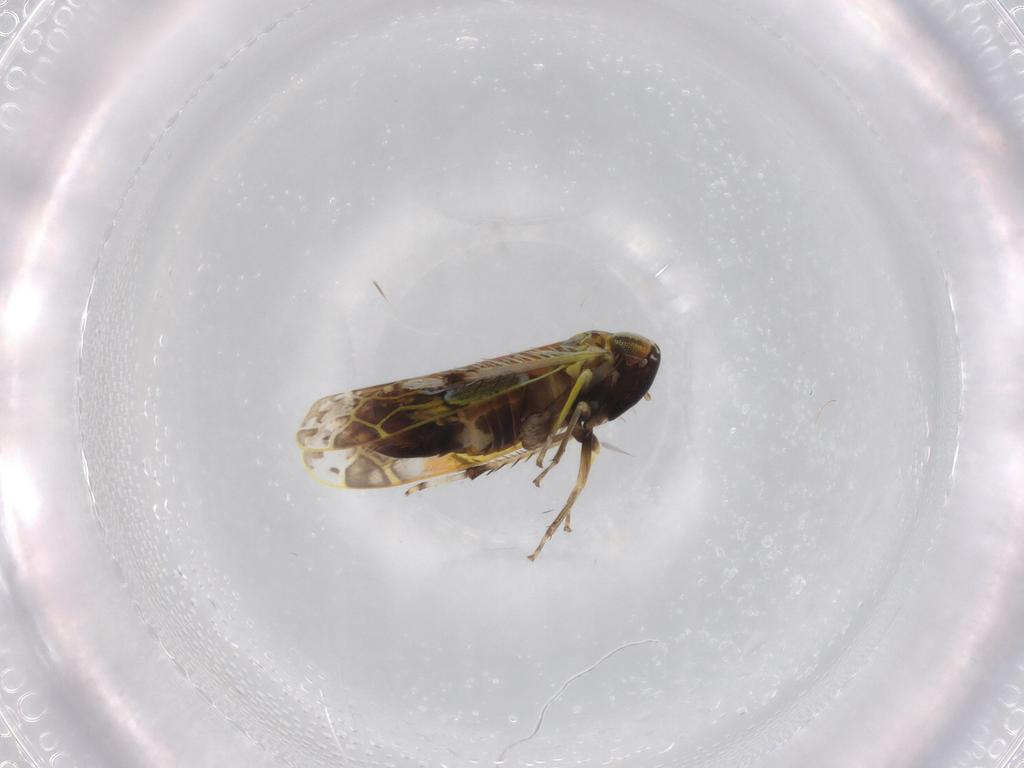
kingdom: Animalia
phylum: Arthropoda
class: Insecta
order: Hemiptera
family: Cicadellidae
